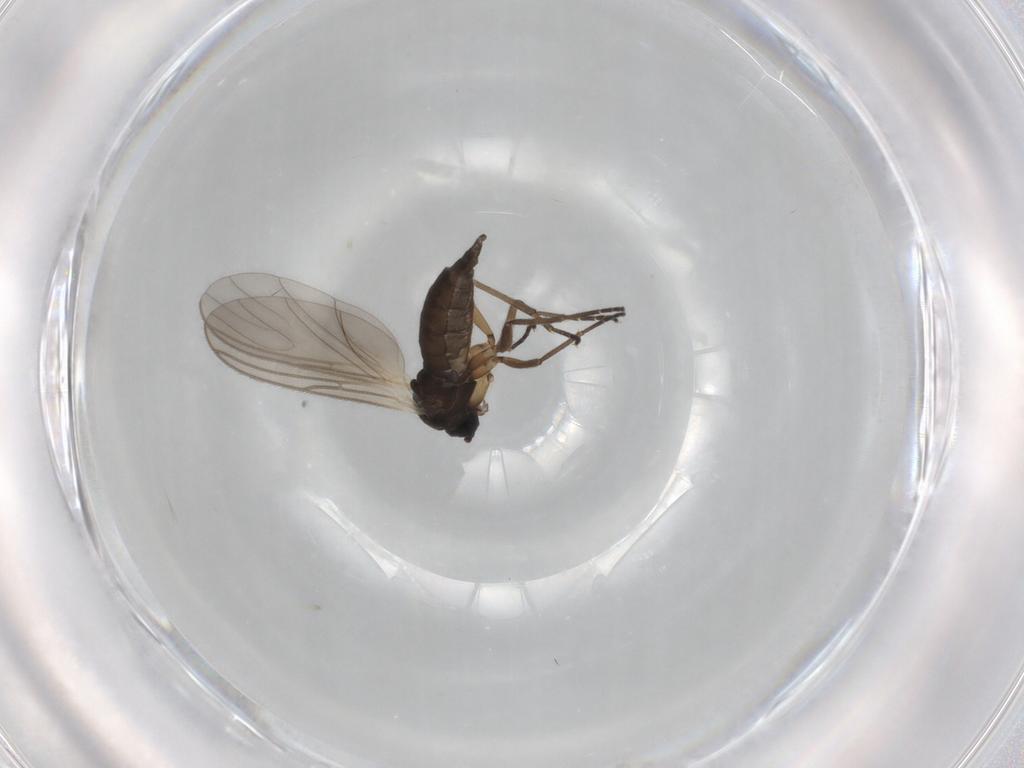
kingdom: Animalia
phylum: Arthropoda
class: Insecta
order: Diptera
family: Sciaridae
